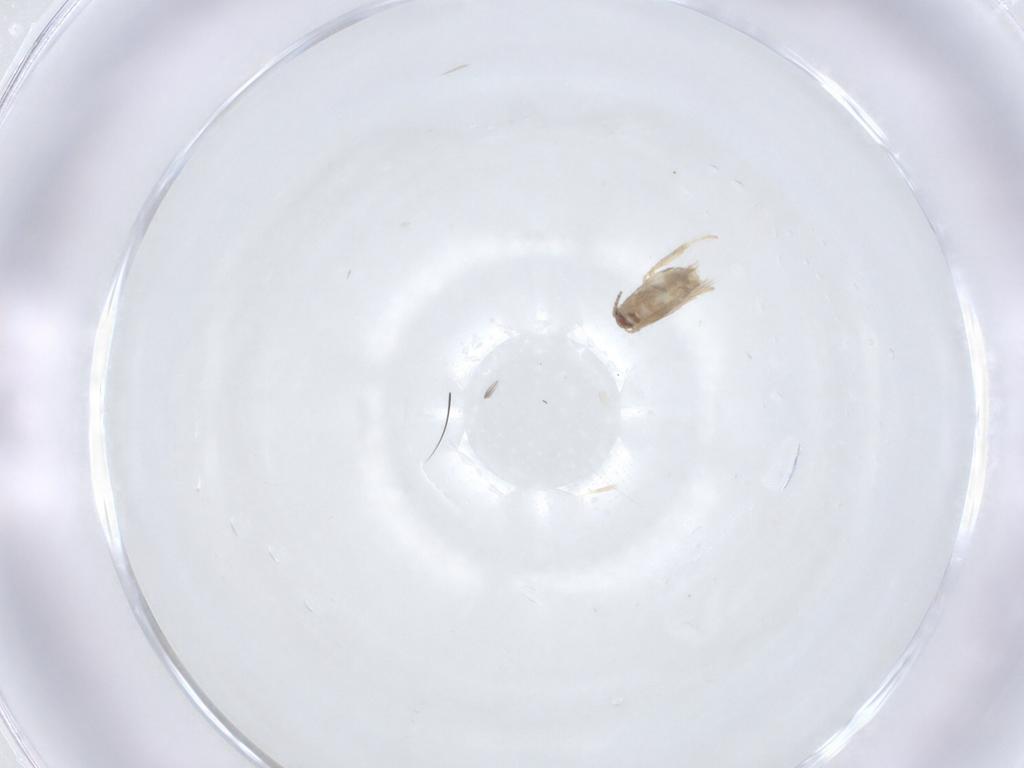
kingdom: Animalia
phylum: Arthropoda
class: Insecta
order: Lepidoptera
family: Nepticulidae
